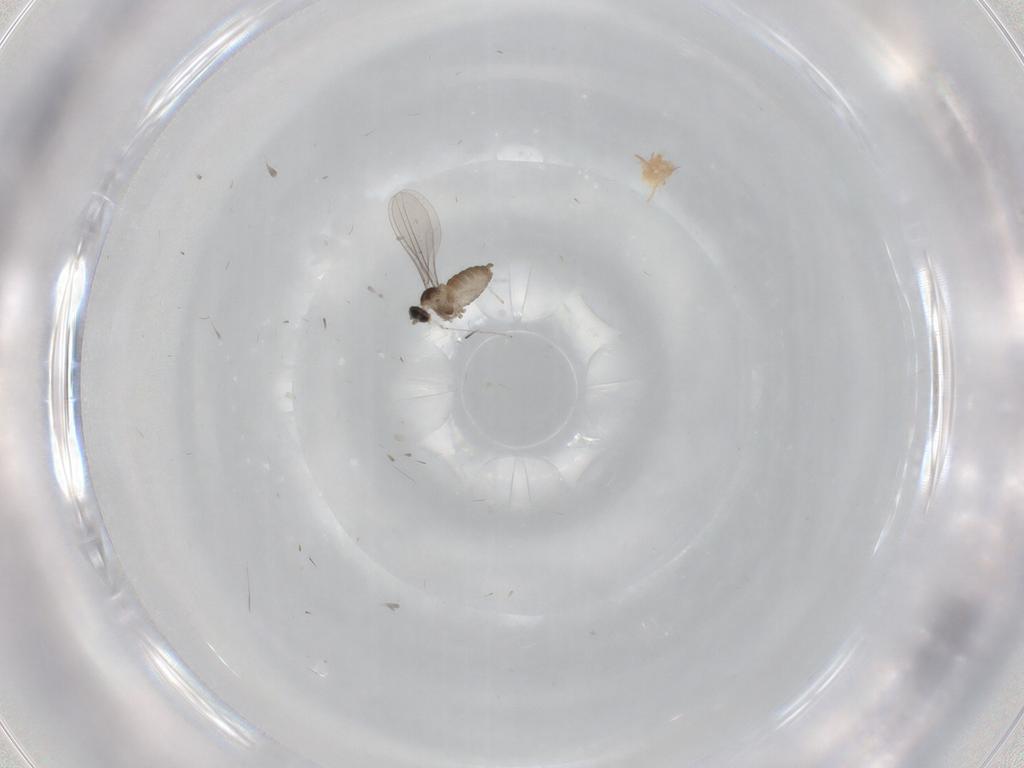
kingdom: Animalia
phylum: Arthropoda
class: Insecta
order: Diptera
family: Cecidomyiidae
